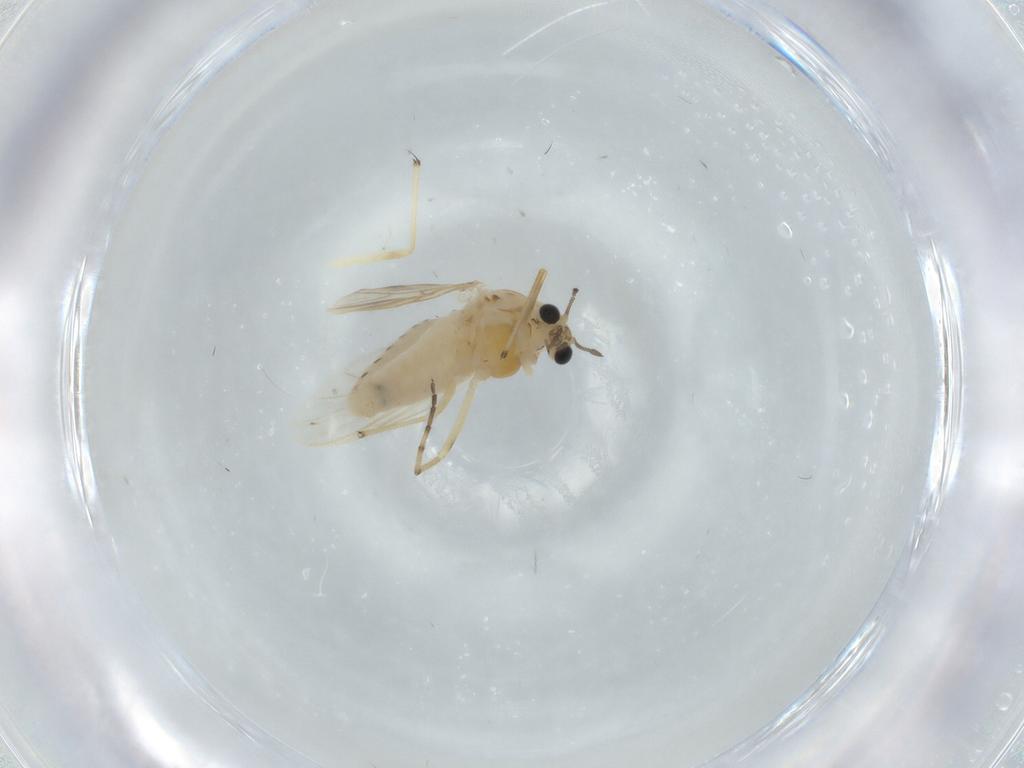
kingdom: Animalia
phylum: Arthropoda
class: Insecta
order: Diptera
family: Chironomidae
